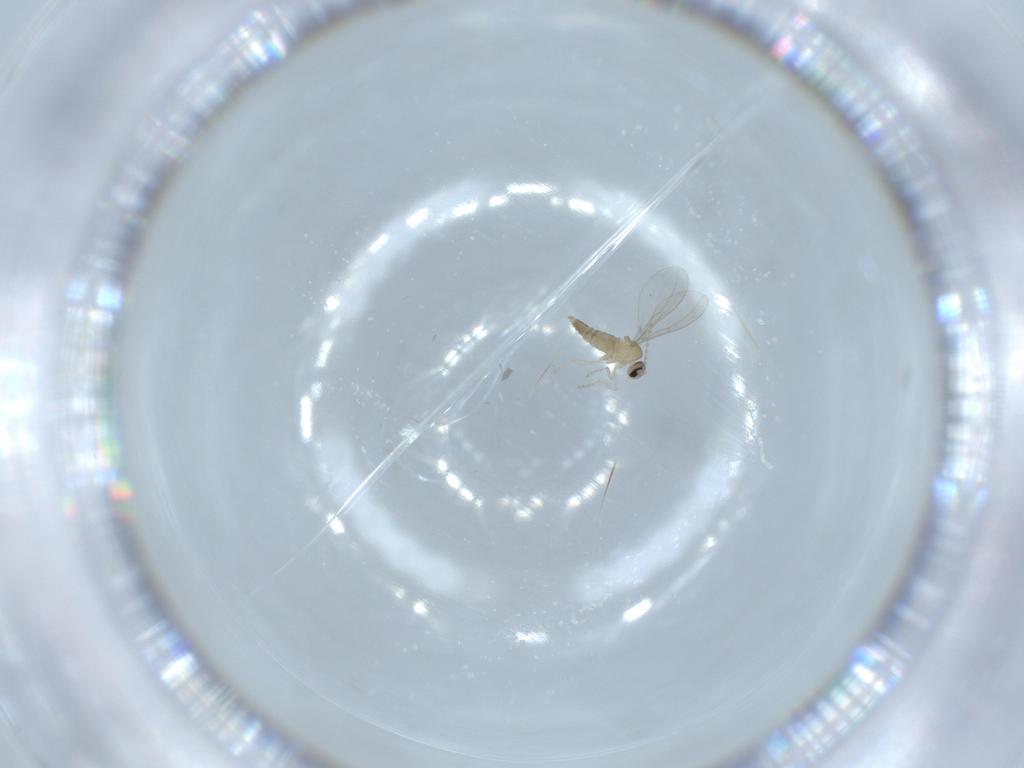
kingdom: Animalia
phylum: Arthropoda
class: Insecta
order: Diptera
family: Cecidomyiidae
